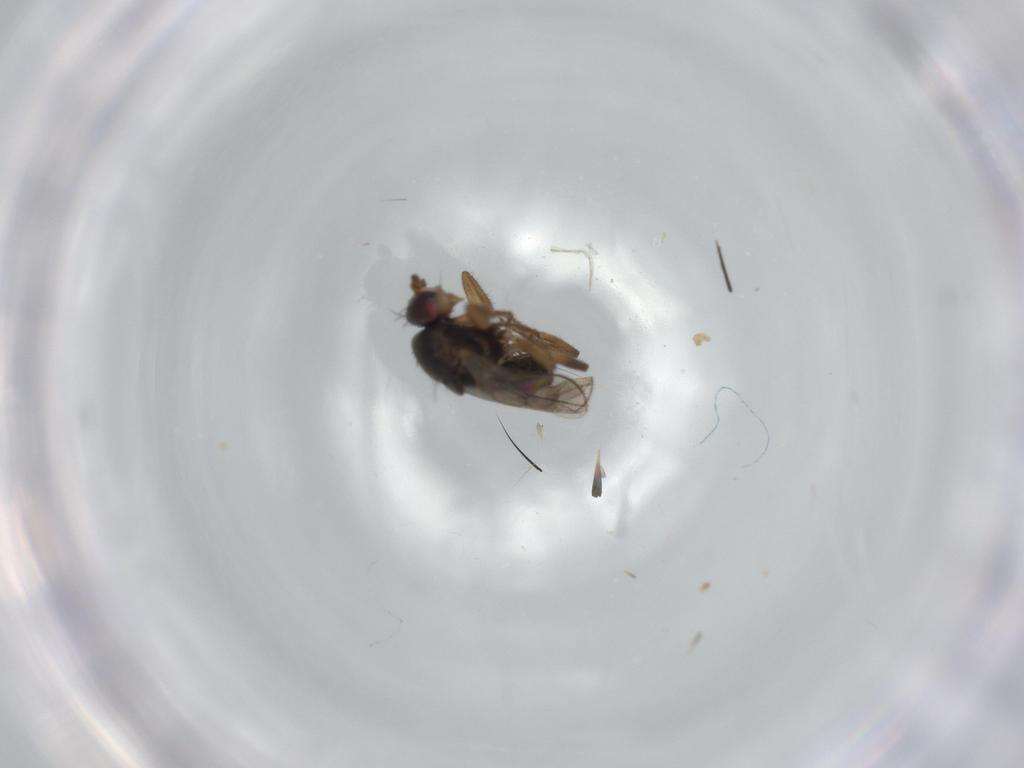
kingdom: Animalia
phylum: Arthropoda
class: Insecta
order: Diptera
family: Sphaeroceridae
